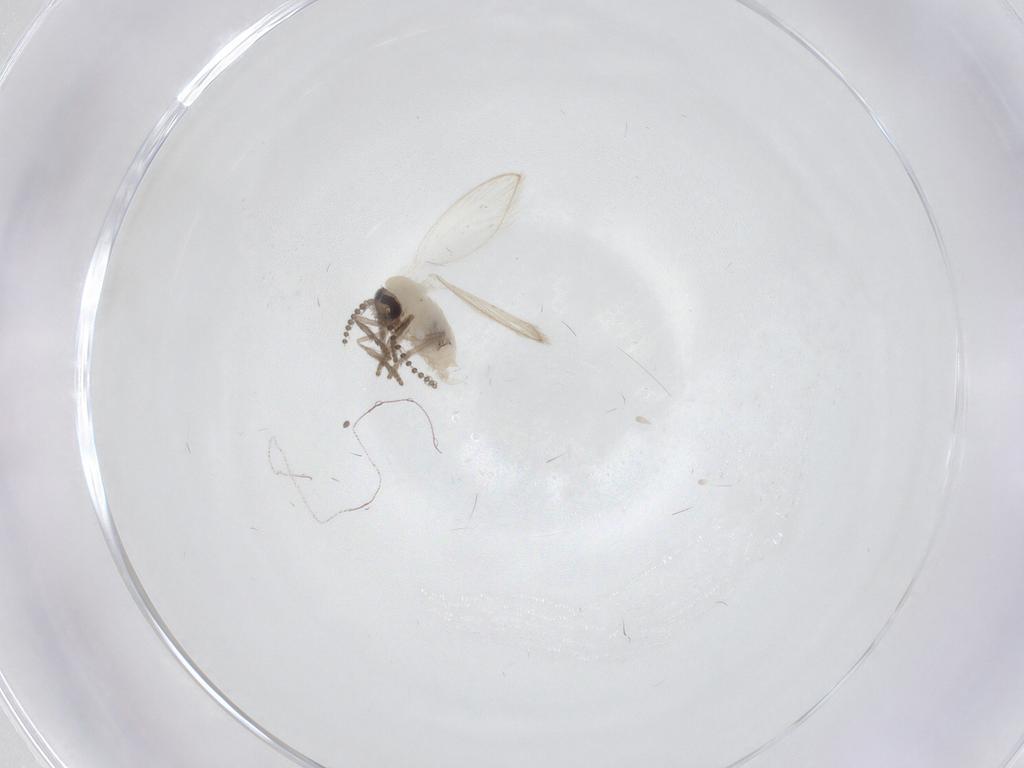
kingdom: Animalia
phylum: Arthropoda
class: Insecta
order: Diptera
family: Psychodidae
